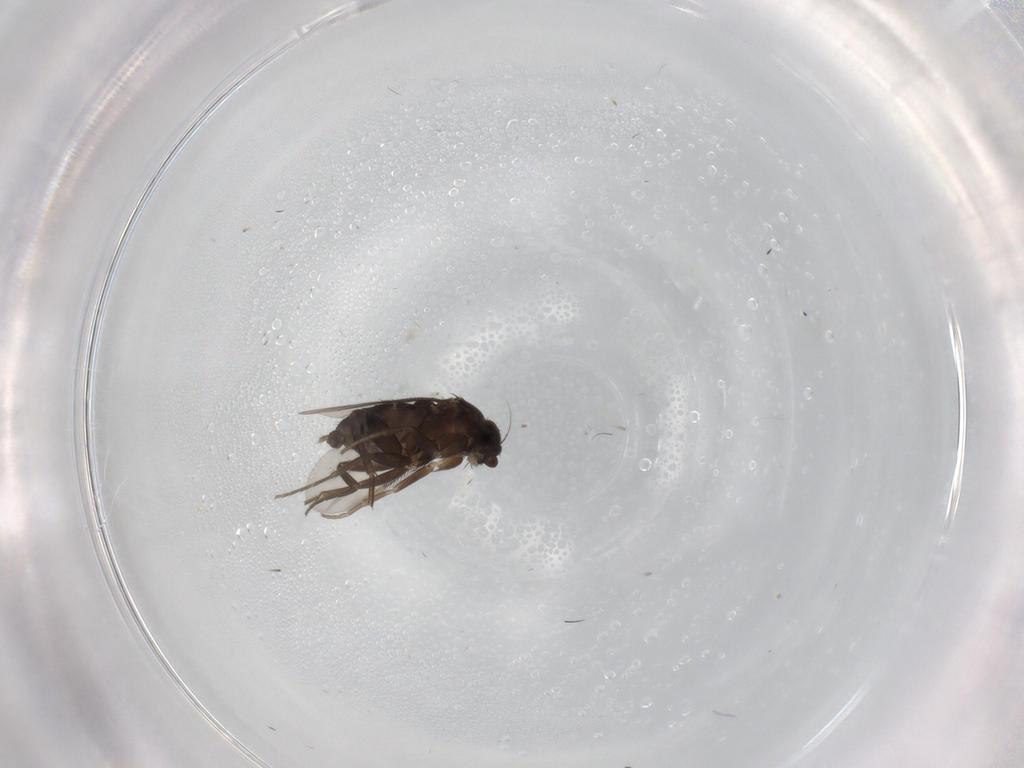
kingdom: Animalia
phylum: Arthropoda
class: Insecta
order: Diptera
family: Phoridae
